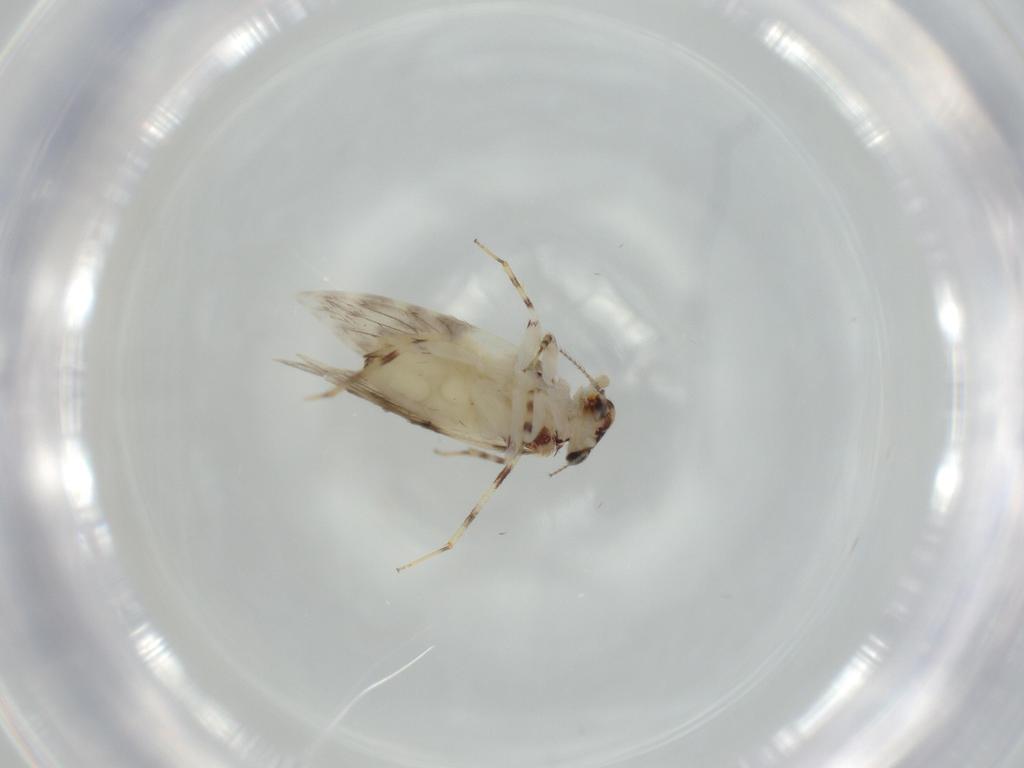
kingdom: Animalia
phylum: Arthropoda
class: Insecta
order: Psocodea
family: Lepidopsocidae
